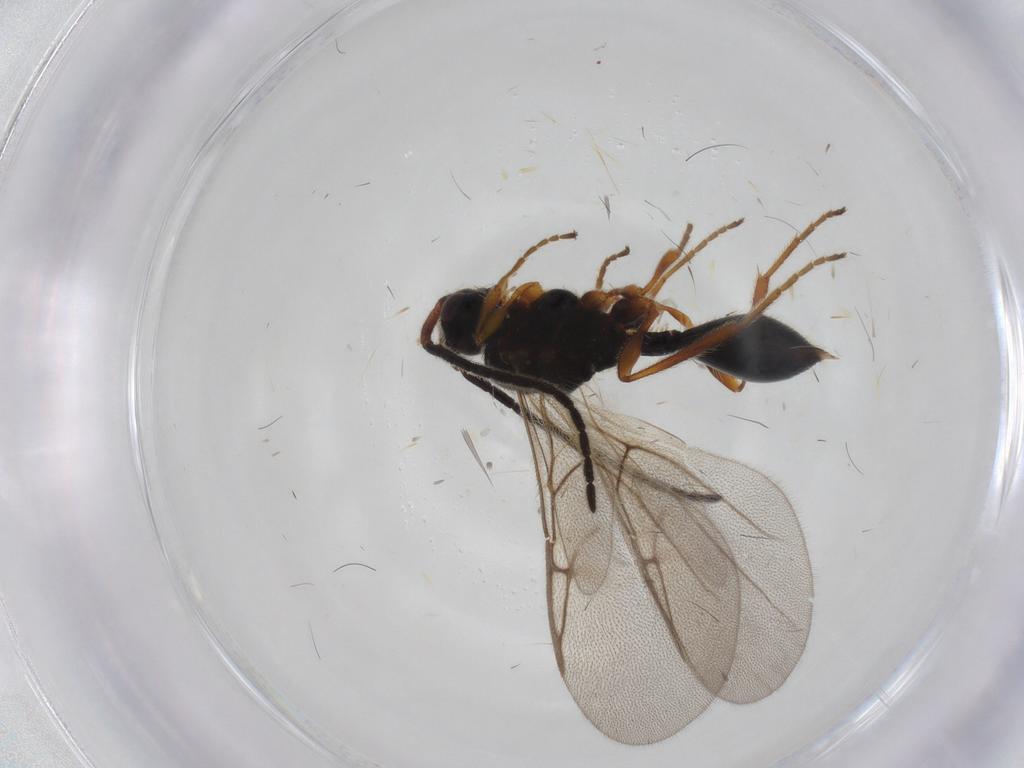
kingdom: Animalia
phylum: Arthropoda
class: Insecta
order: Hymenoptera
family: Diapriidae
